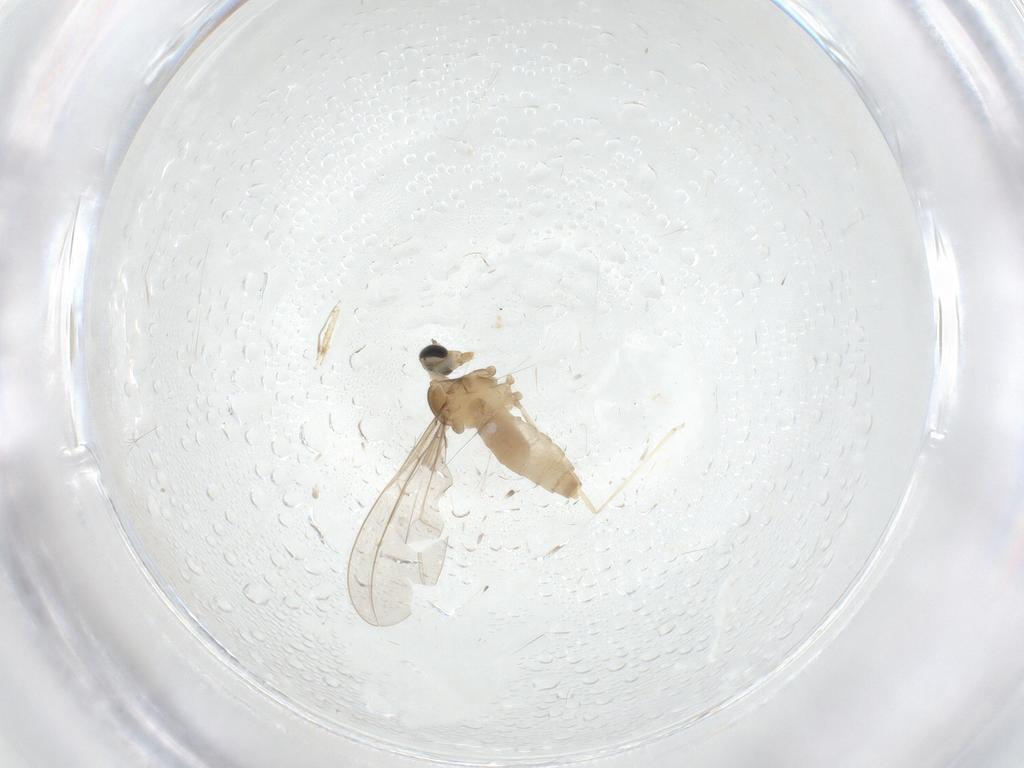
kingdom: Animalia
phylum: Arthropoda
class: Insecta
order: Diptera
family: Cecidomyiidae
